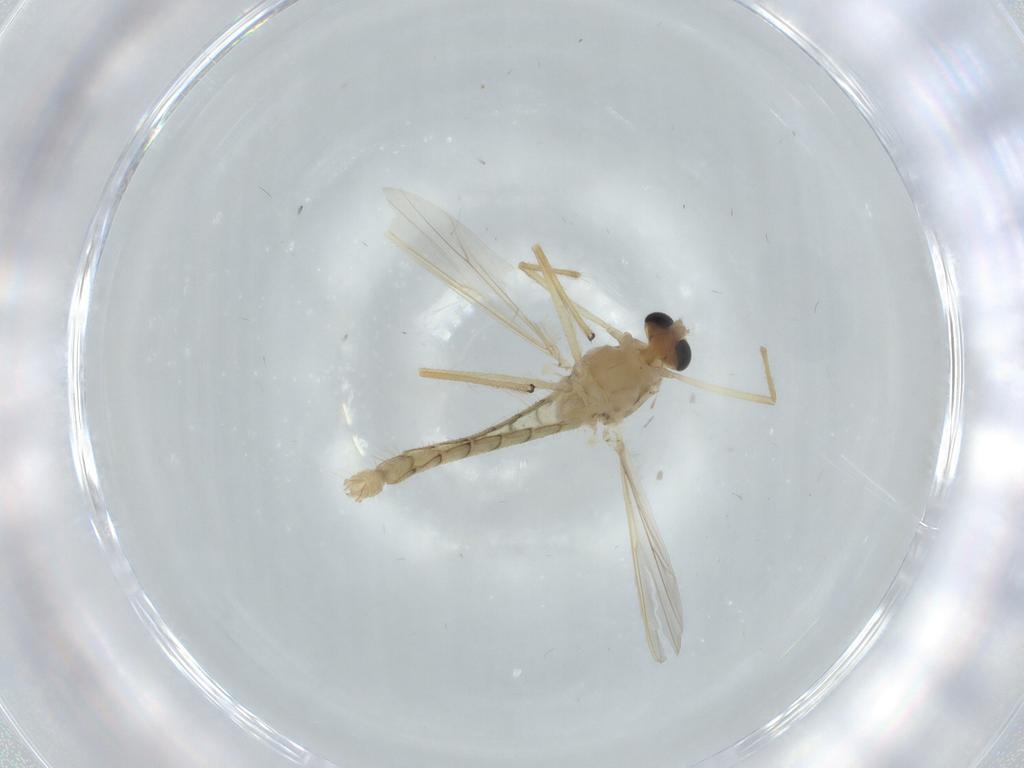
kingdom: Animalia
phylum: Arthropoda
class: Insecta
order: Diptera
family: Chironomidae
